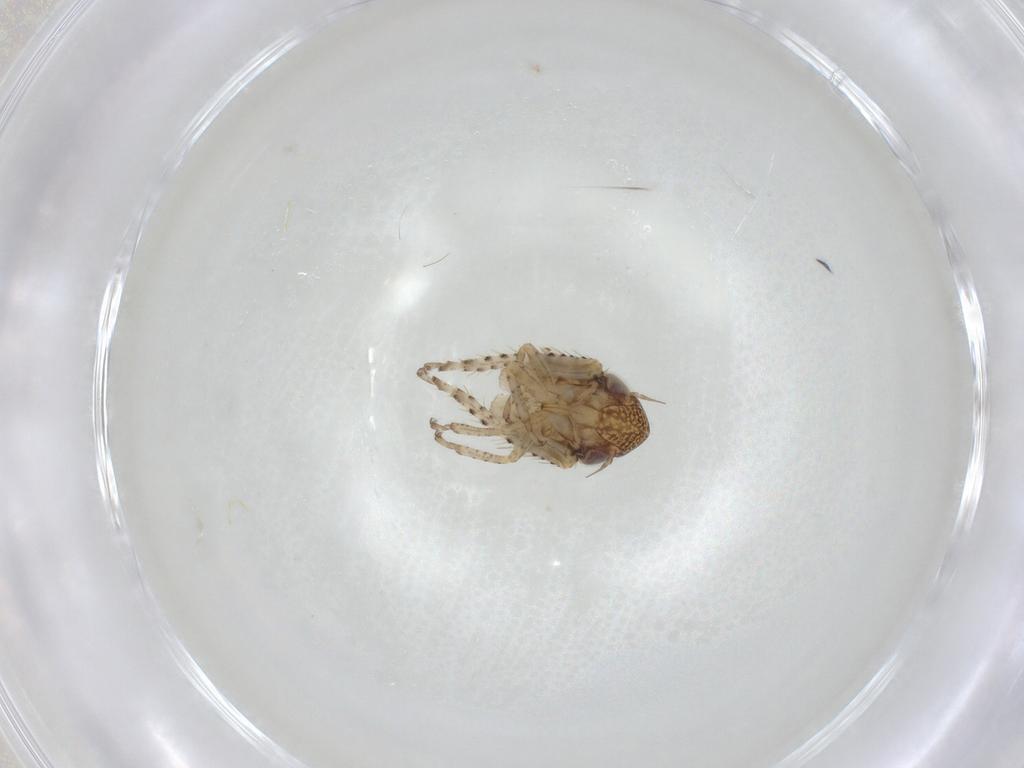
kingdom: Animalia
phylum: Arthropoda
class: Insecta
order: Hemiptera
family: Cicadellidae
